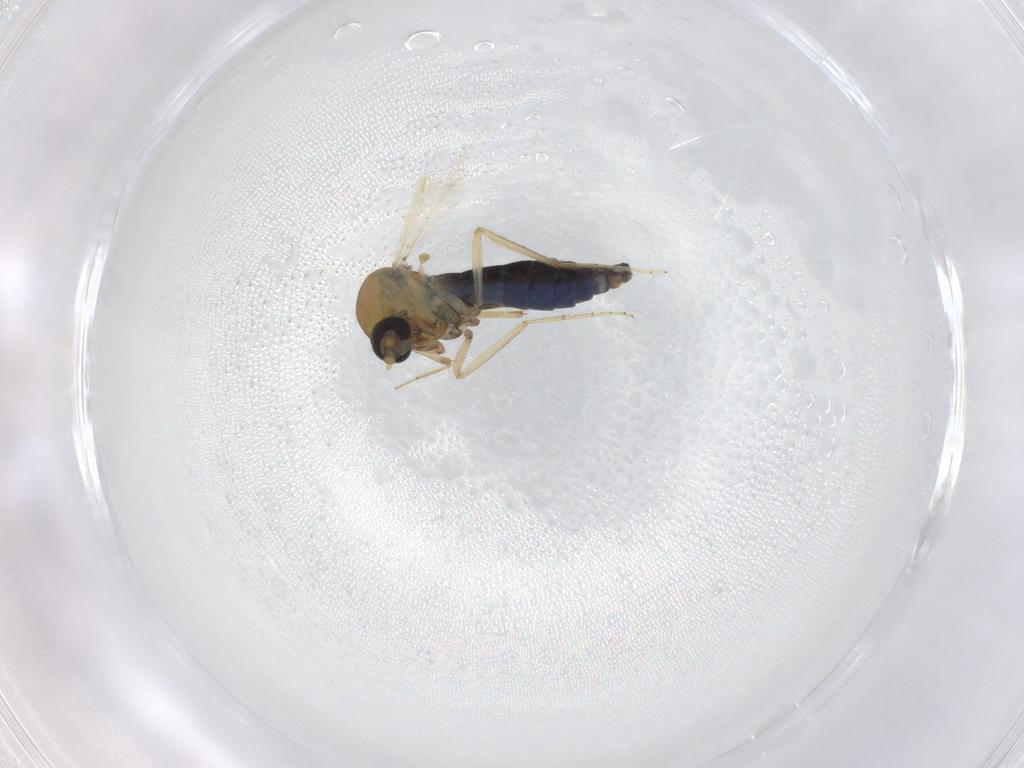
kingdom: Animalia
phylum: Arthropoda
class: Insecta
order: Diptera
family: Ceratopogonidae
